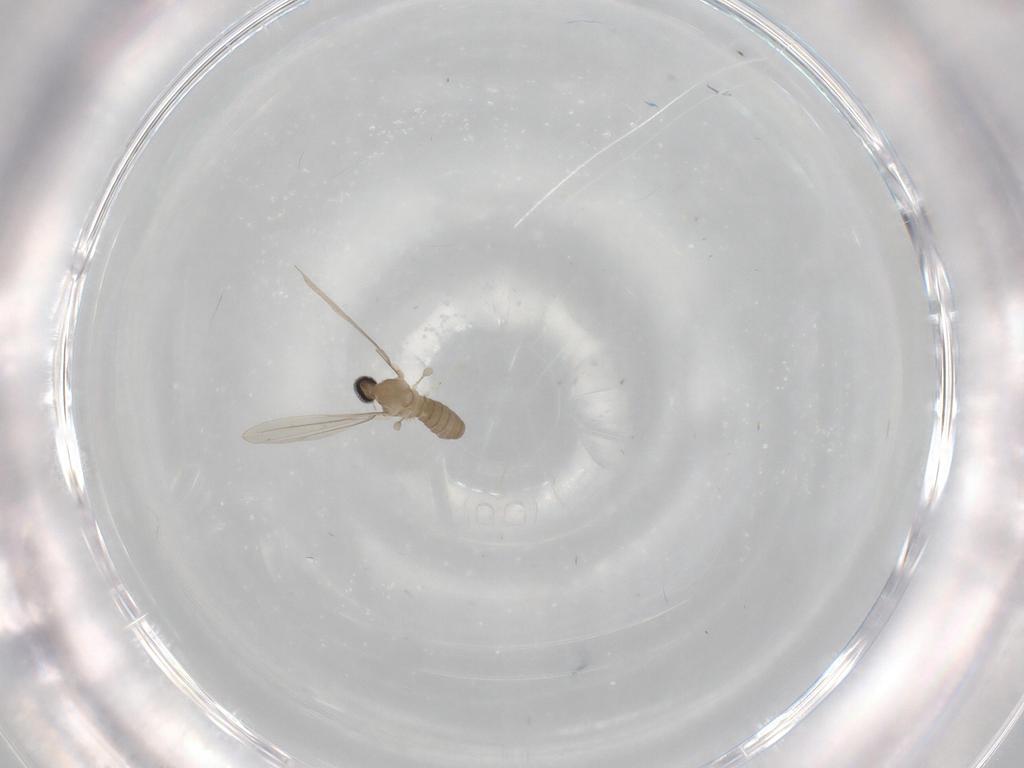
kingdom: Animalia
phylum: Arthropoda
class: Insecta
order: Diptera
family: Cecidomyiidae
